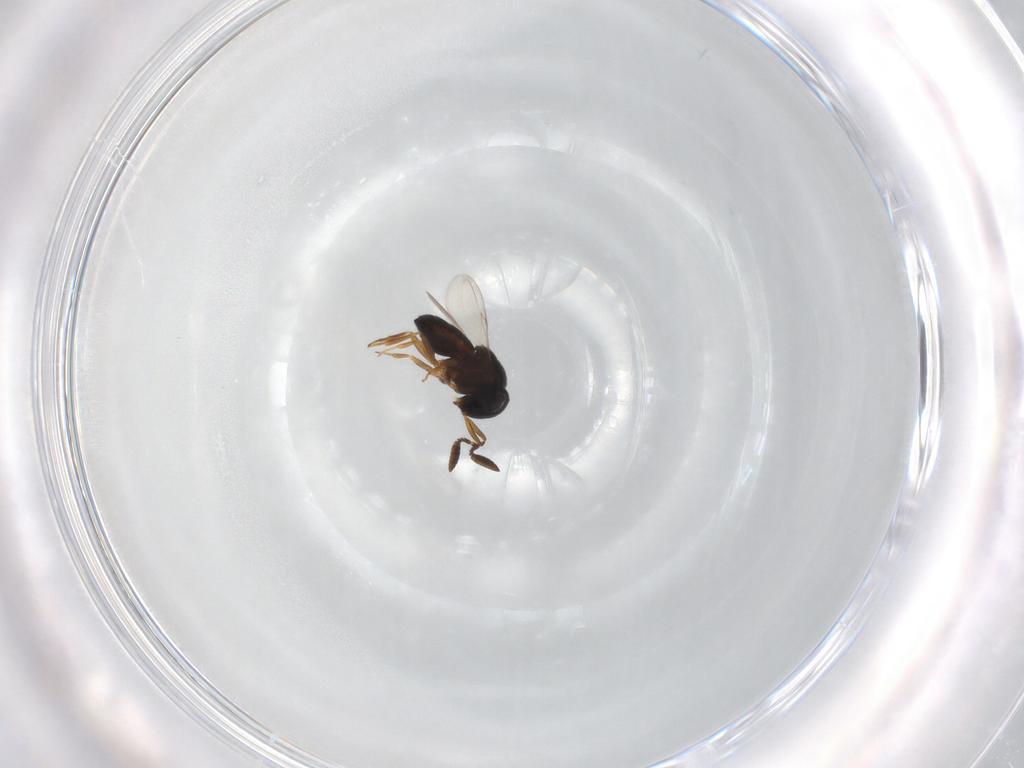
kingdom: Animalia
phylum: Arthropoda
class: Insecta
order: Hymenoptera
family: Scelionidae
